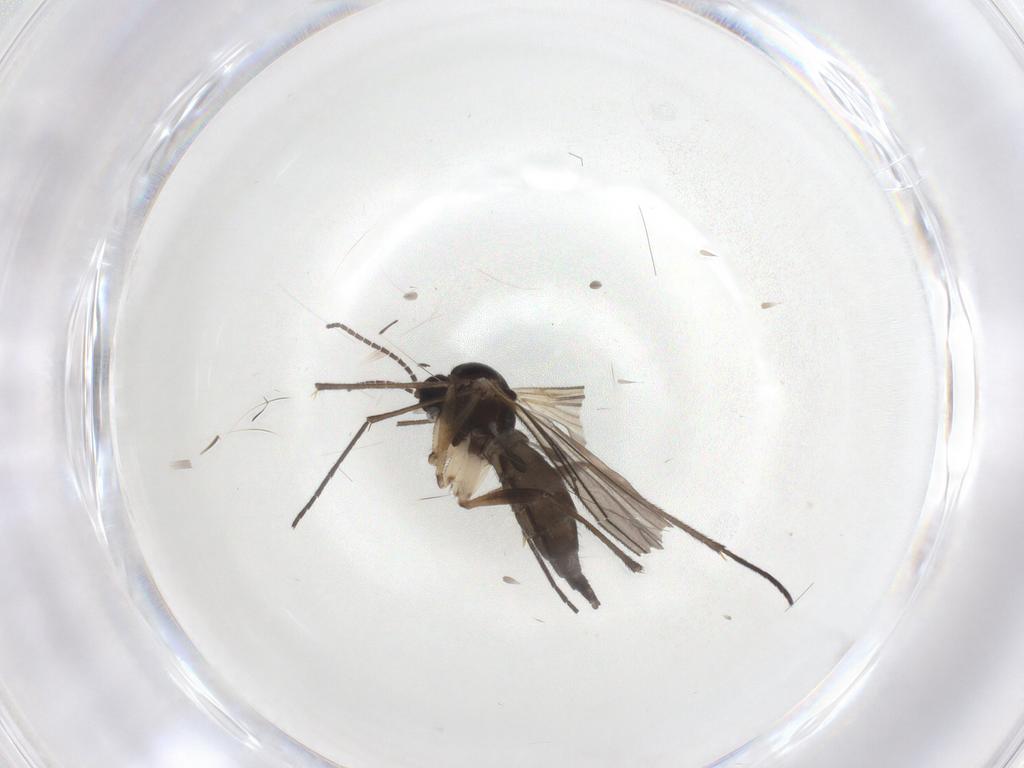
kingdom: Animalia
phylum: Arthropoda
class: Insecta
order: Diptera
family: Sciaridae
